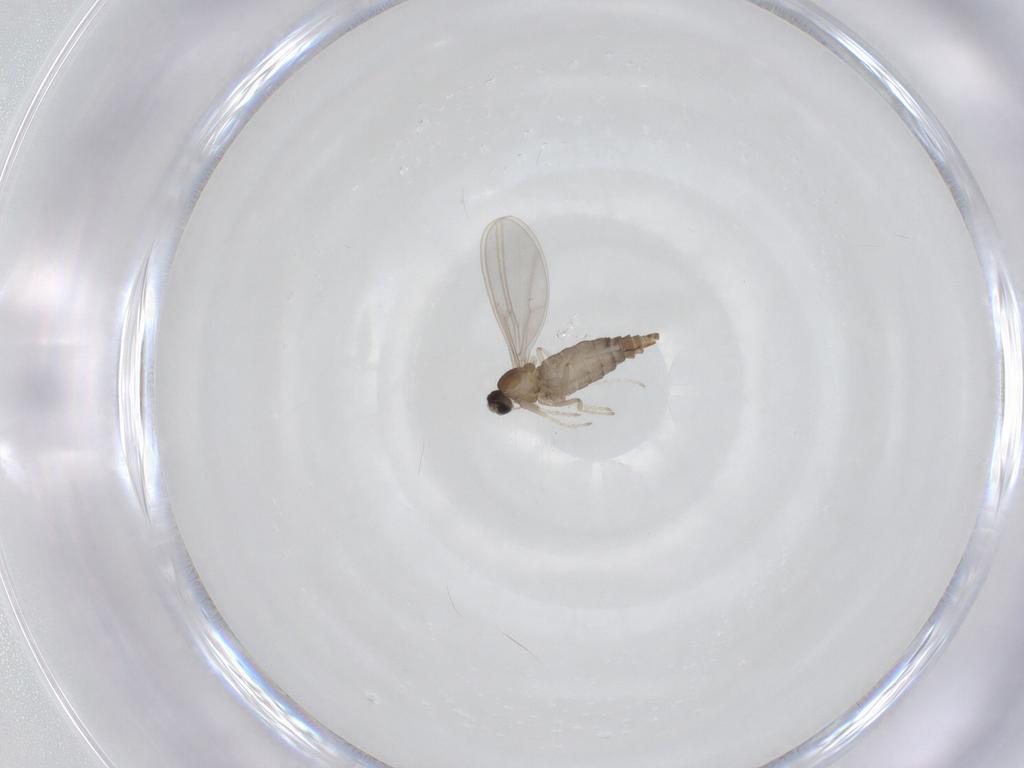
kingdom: Animalia
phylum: Arthropoda
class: Insecta
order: Diptera
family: Cecidomyiidae
